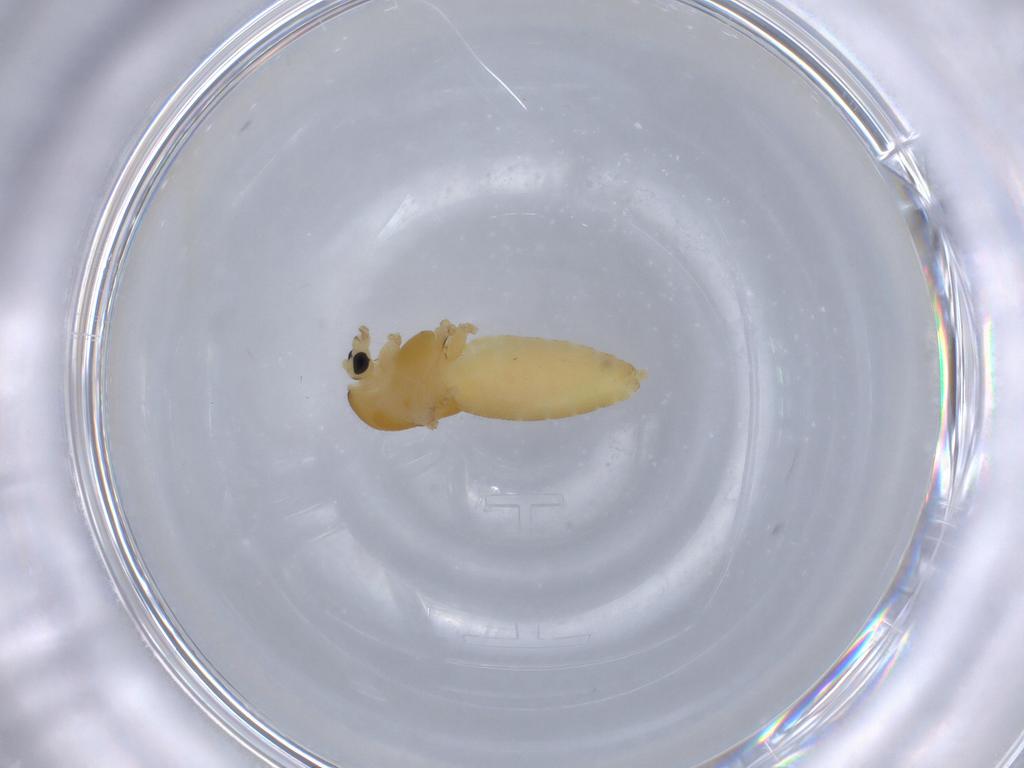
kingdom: Animalia
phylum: Arthropoda
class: Insecta
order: Diptera
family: Chironomidae
